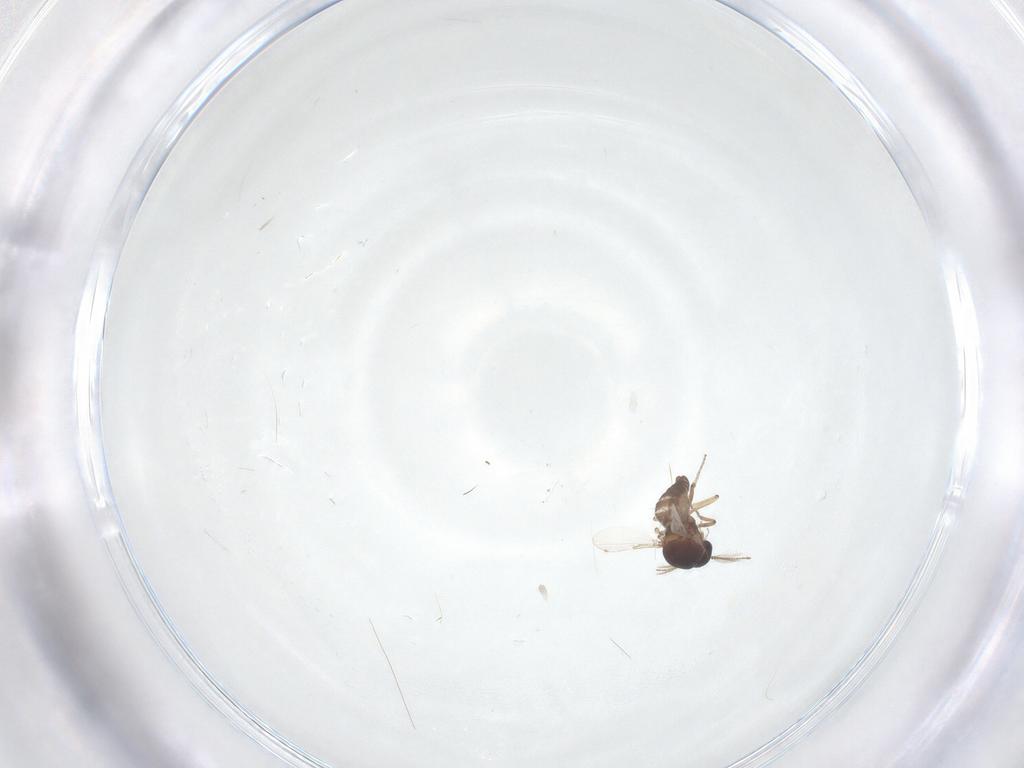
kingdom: Animalia
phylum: Arthropoda
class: Insecta
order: Diptera
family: Ceratopogonidae
